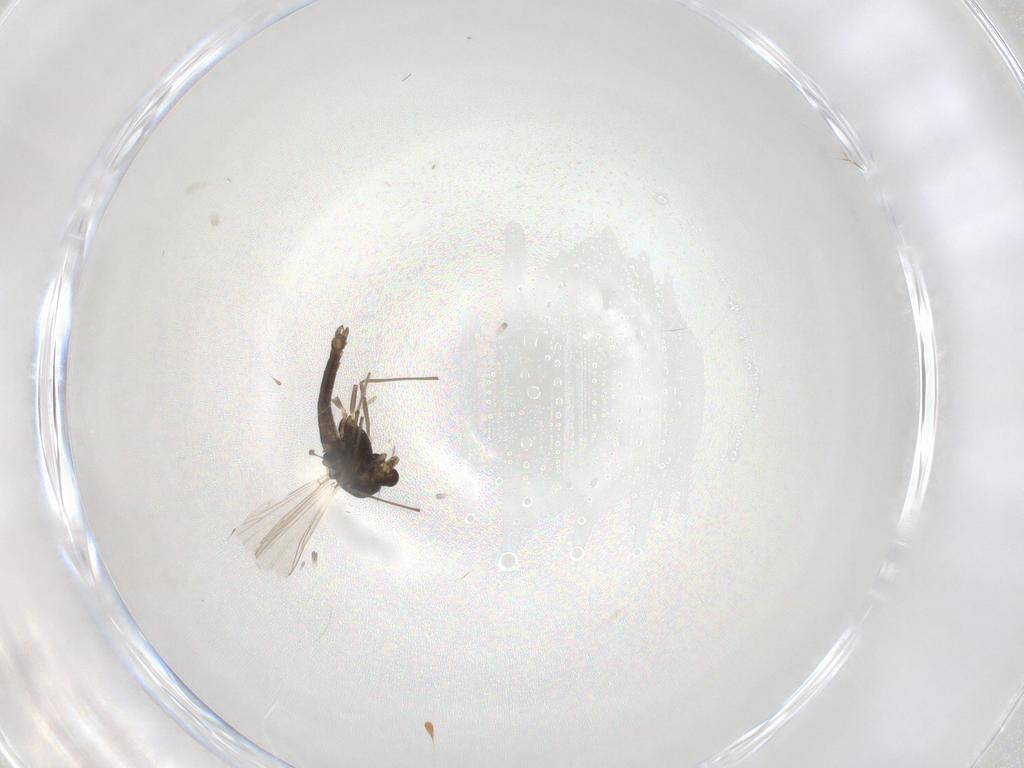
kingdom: Animalia
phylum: Arthropoda
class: Insecta
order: Diptera
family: Chironomidae
